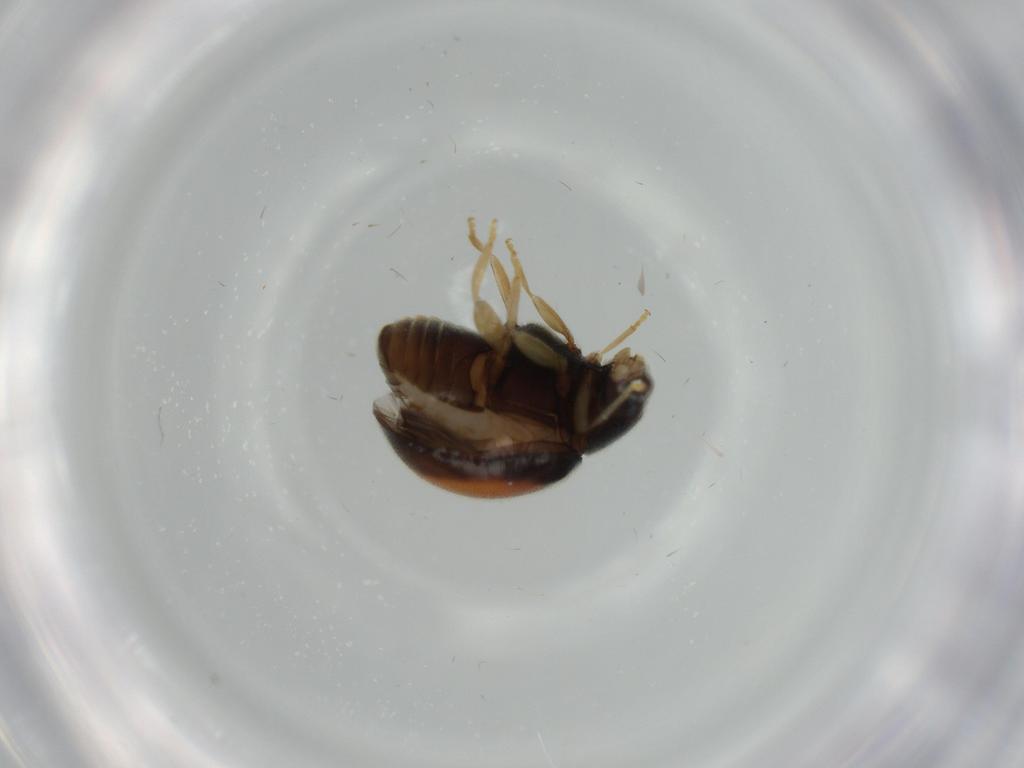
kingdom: Animalia
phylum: Arthropoda
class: Insecta
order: Coleoptera
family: Coccinellidae
